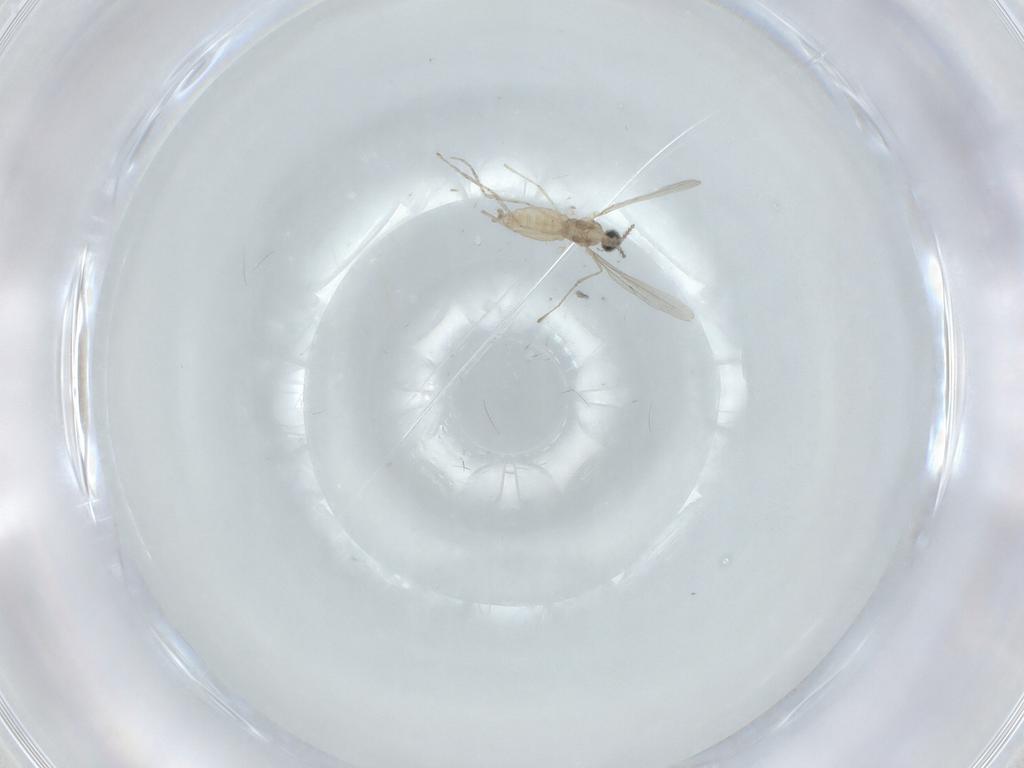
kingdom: Animalia
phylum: Arthropoda
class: Insecta
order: Diptera
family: Cecidomyiidae
